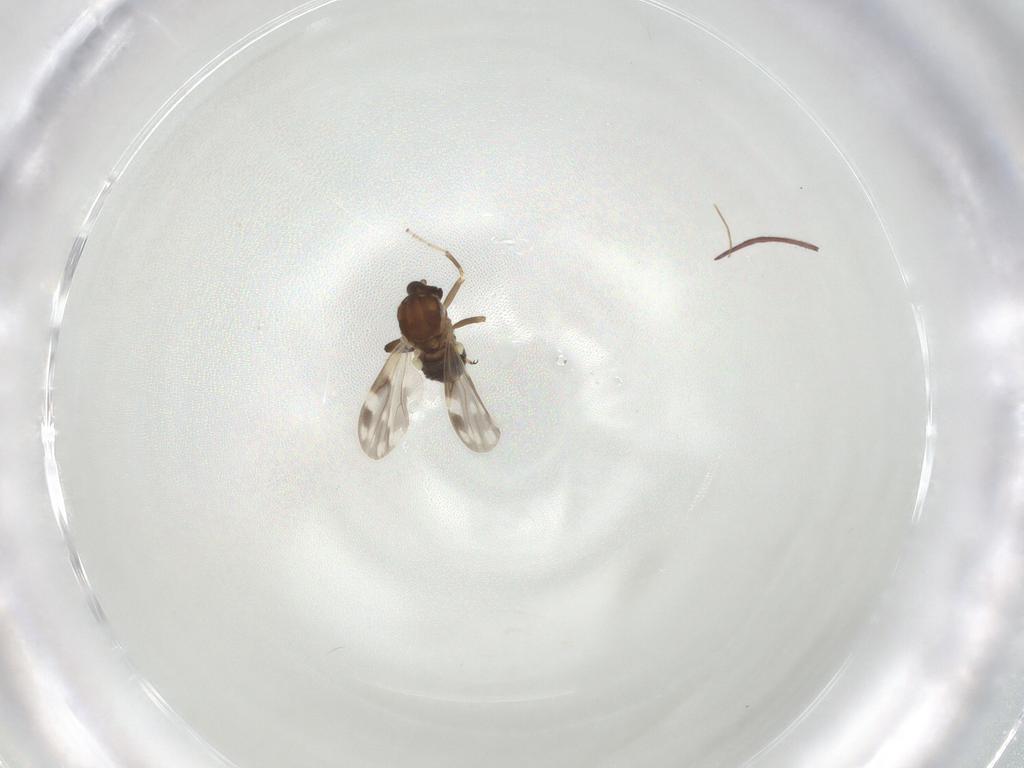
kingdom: Animalia
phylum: Arthropoda
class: Insecta
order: Diptera
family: Ceratopogonidae
